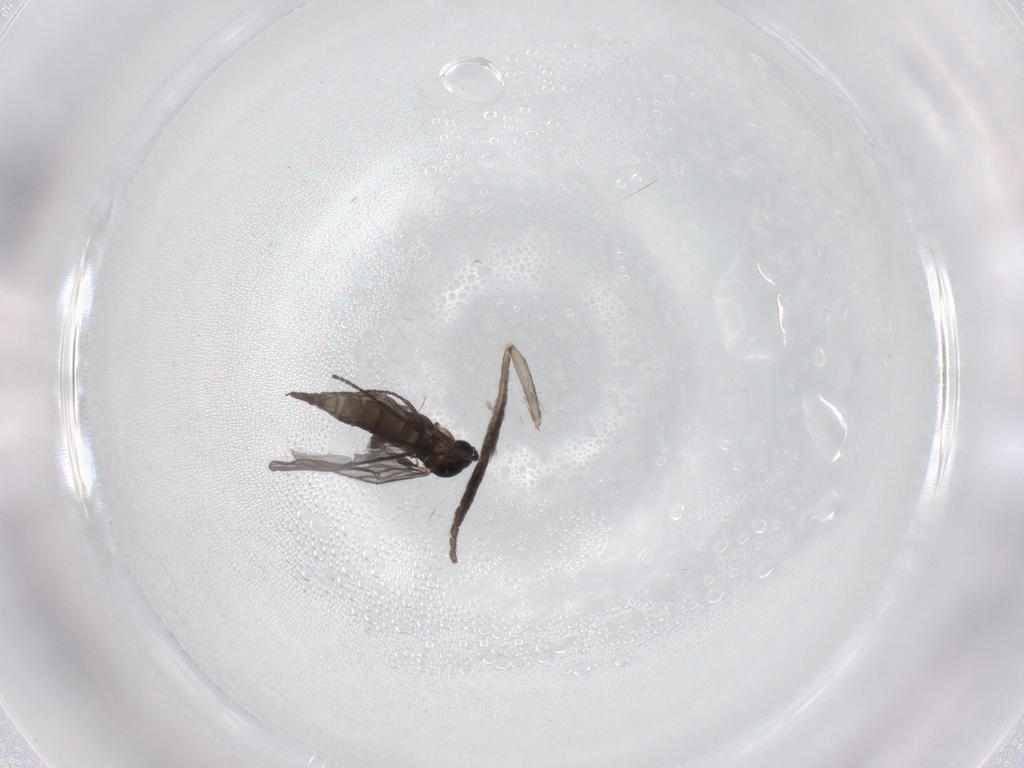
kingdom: Animalia
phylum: Arthropoda
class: Insecta
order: Diptera
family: Sciaridae
